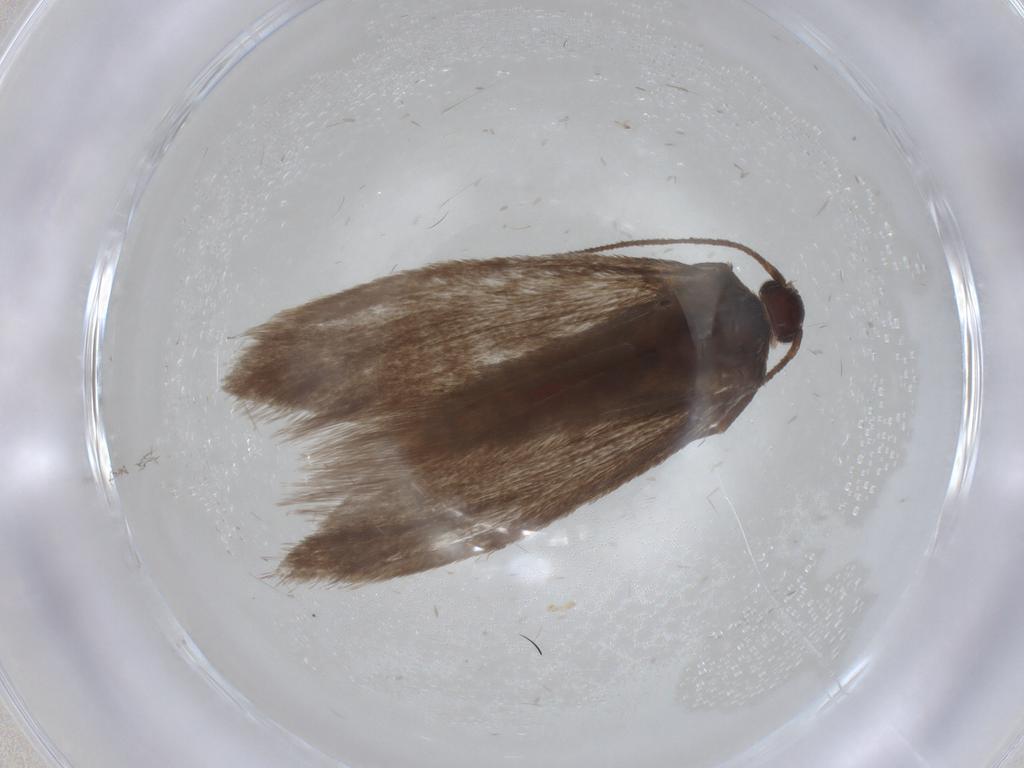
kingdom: Animalia
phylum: Arthropoda
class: Insecta
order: Lepidoptera
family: Limacodidae
